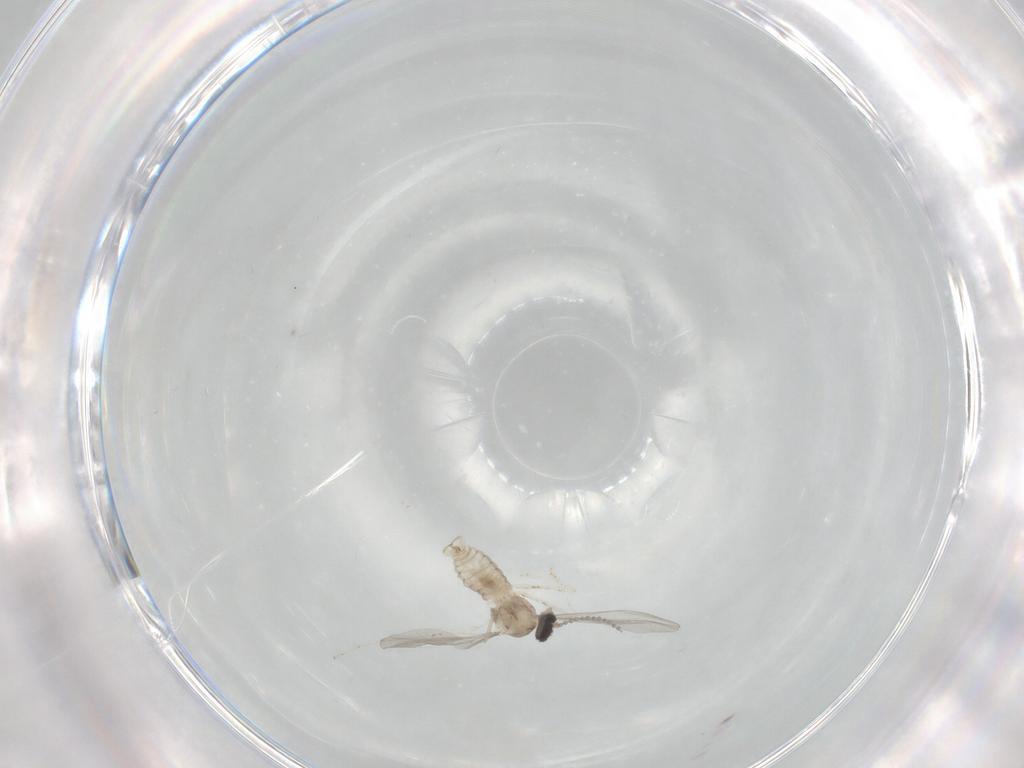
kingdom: Animalia
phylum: Arthropoda
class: Insecta
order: Diptera
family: Cecidomyiidae
